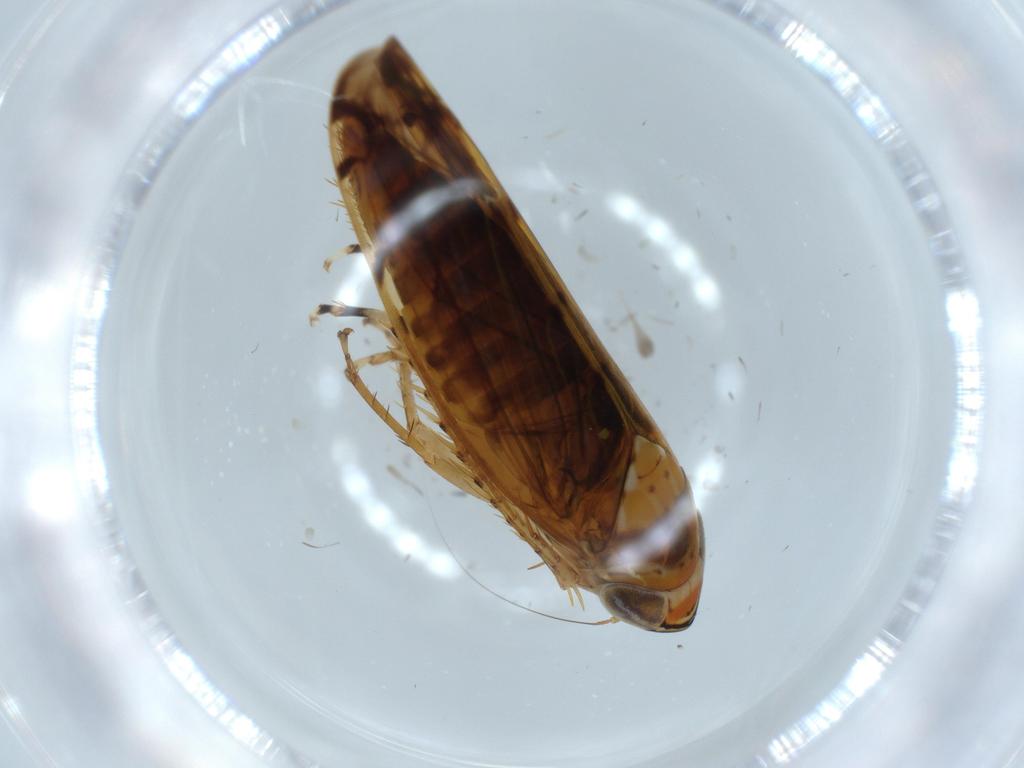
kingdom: Animalia
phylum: Arthropoda
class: Insecta
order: Hemiptera
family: Cicadellidae
